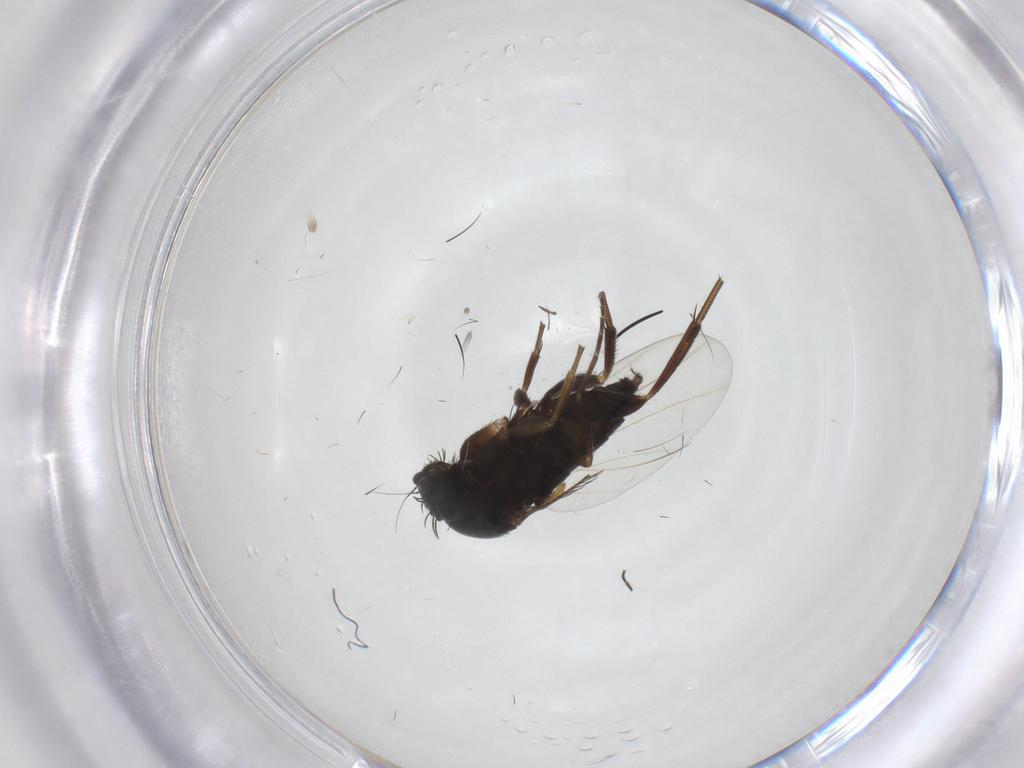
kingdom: Animalia
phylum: Arthropoda
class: Insecta
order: Diptera
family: Phoridae
